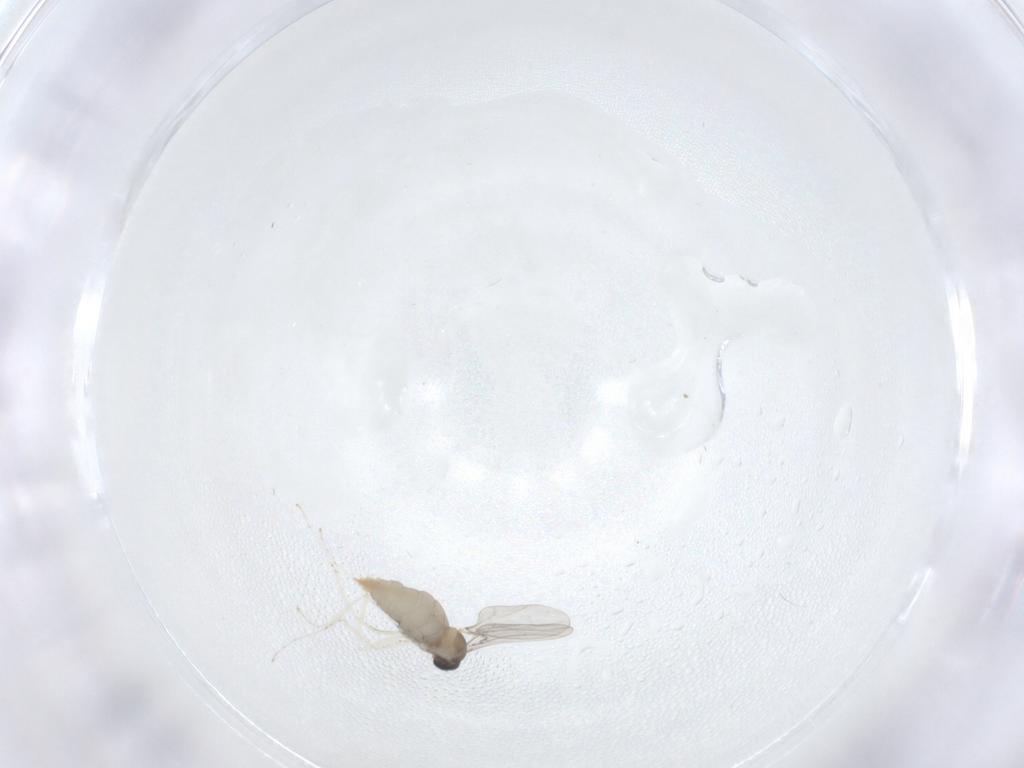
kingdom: Animalia
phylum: Arthropoda
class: Insecta
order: Diptera
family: Cecidomyiidae
